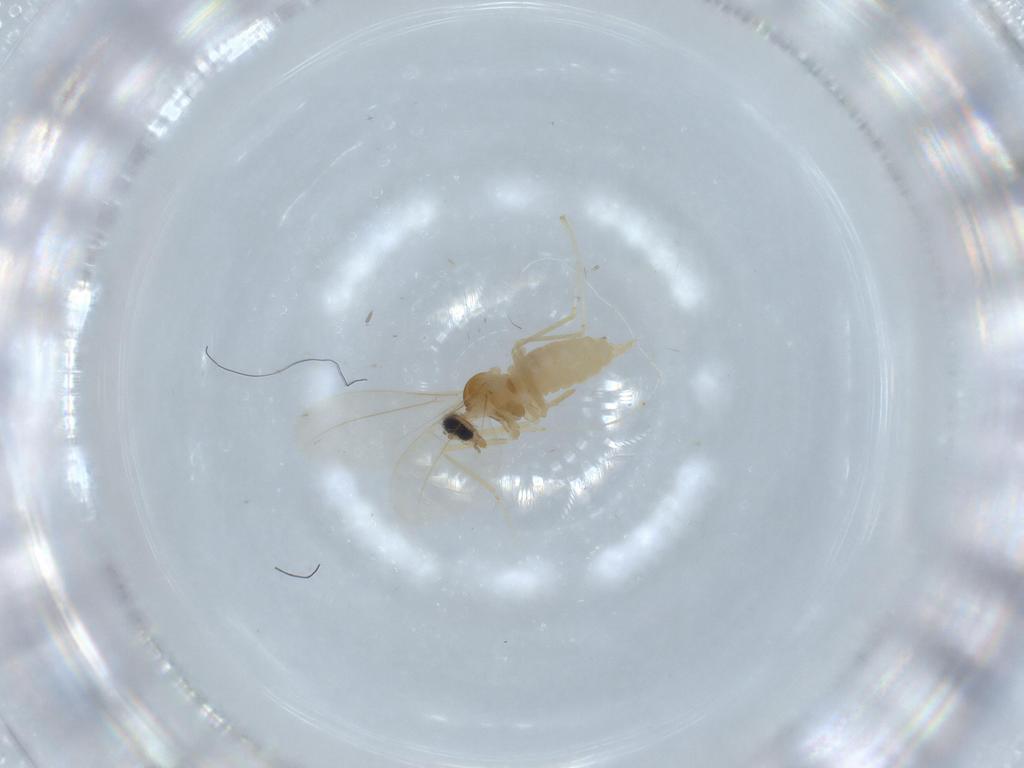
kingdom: Animalia
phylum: Arthropoda
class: Insecta
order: Diptera
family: Cecidomyiidae
